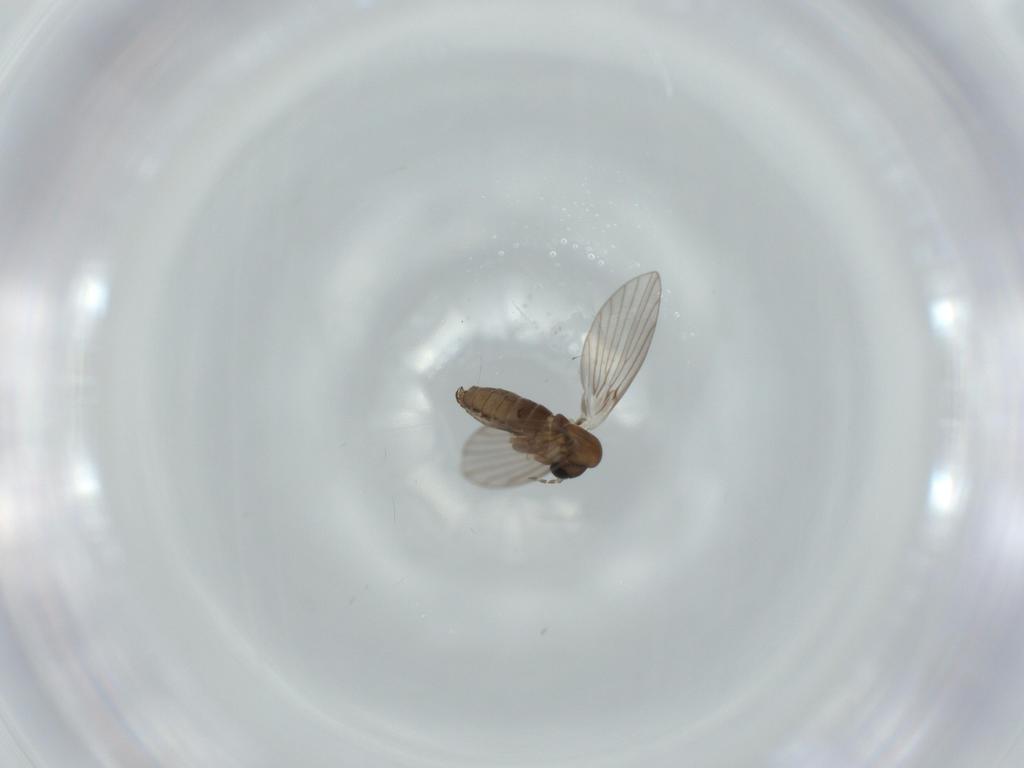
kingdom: Animalia
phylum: Arthropoda
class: Insecta
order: Diptera
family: Psychodidae
